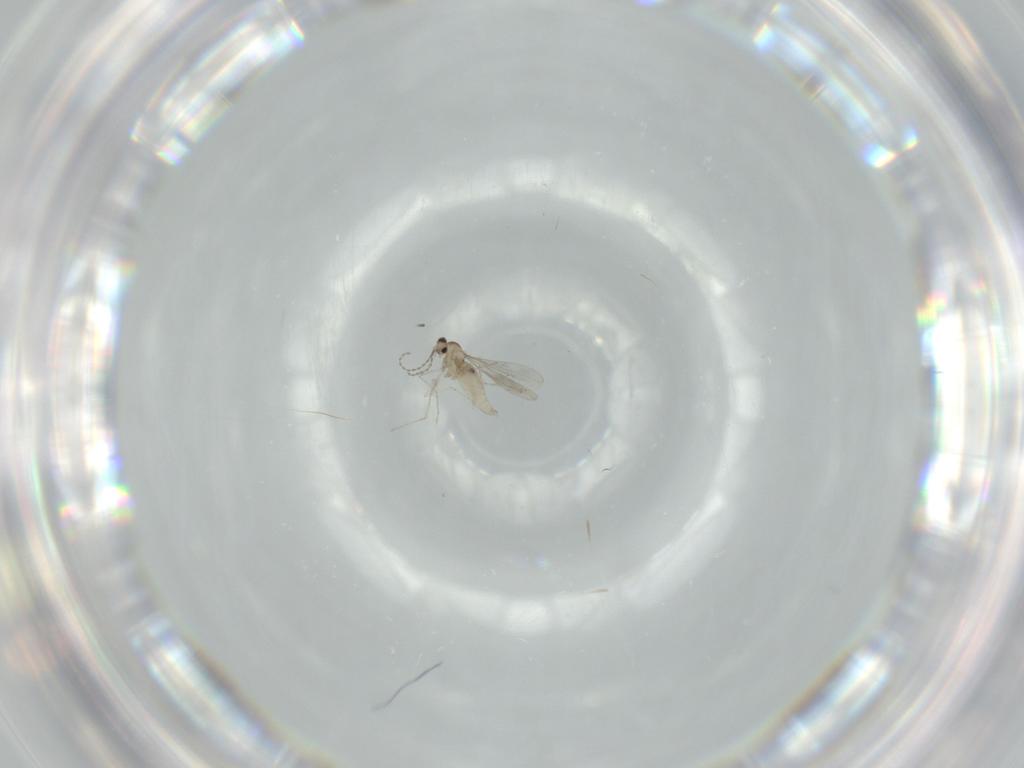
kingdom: Animalia
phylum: Arthropoda
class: Insecta
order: Diptera
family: Cecidomyiidae
